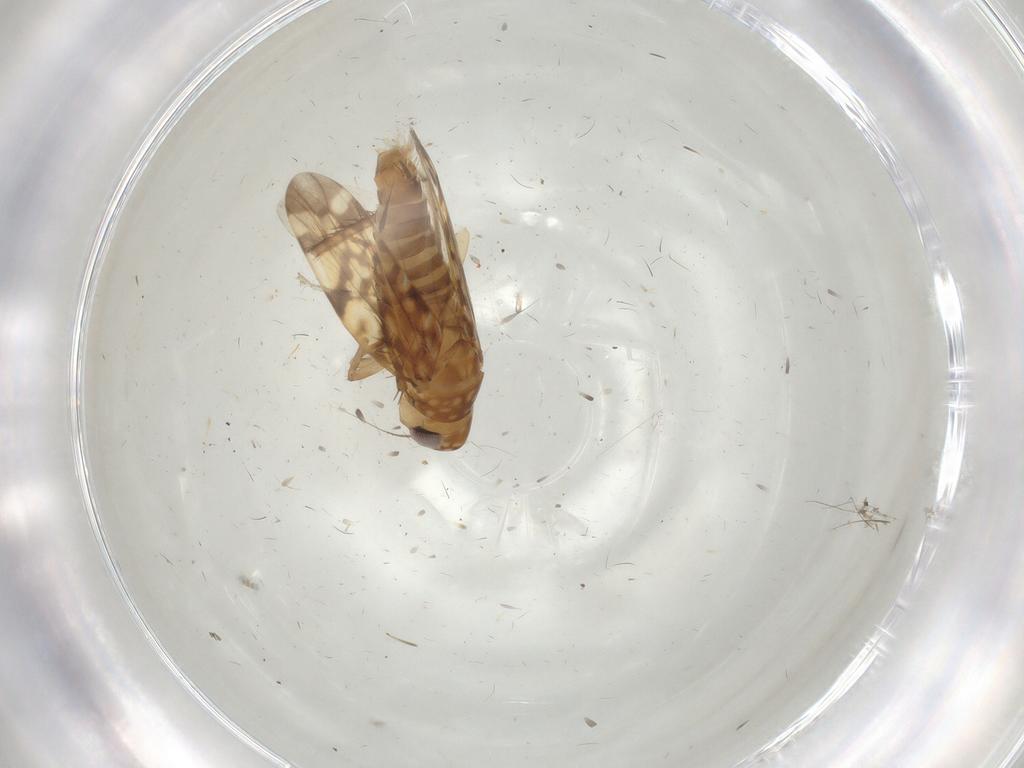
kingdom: Animalia
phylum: Arthropoda
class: Insecta
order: Hemiptera
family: Cicadellidae
